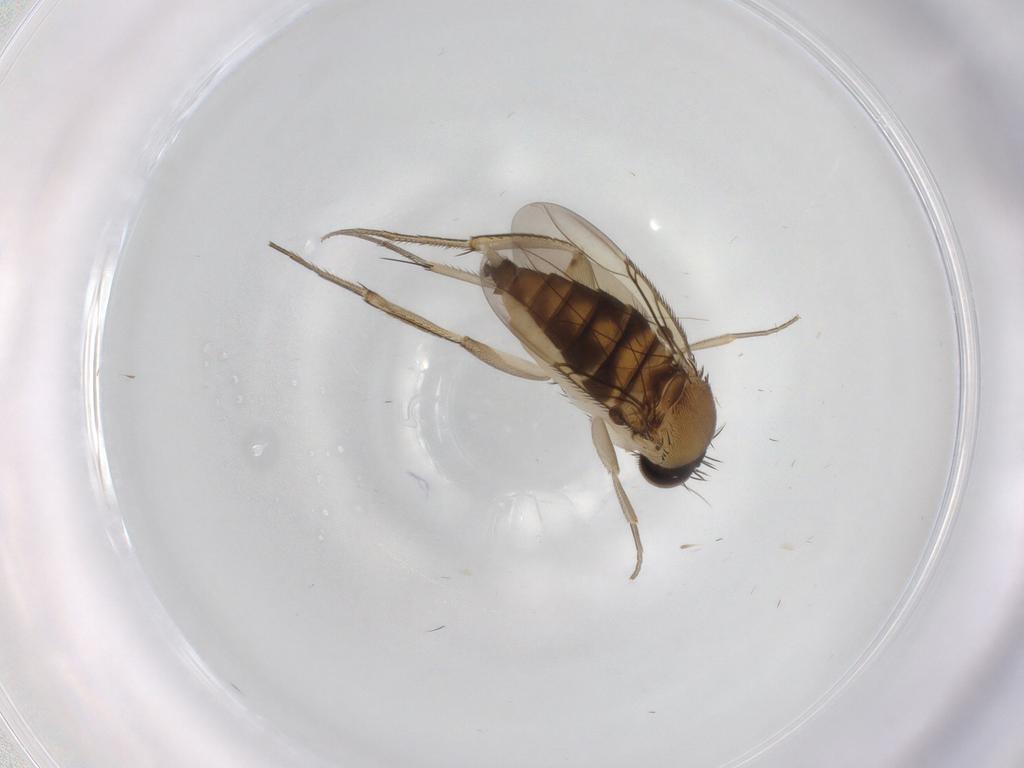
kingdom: Animalia
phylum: Arthropoda
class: Insecta
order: Diptera
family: Phoridae
